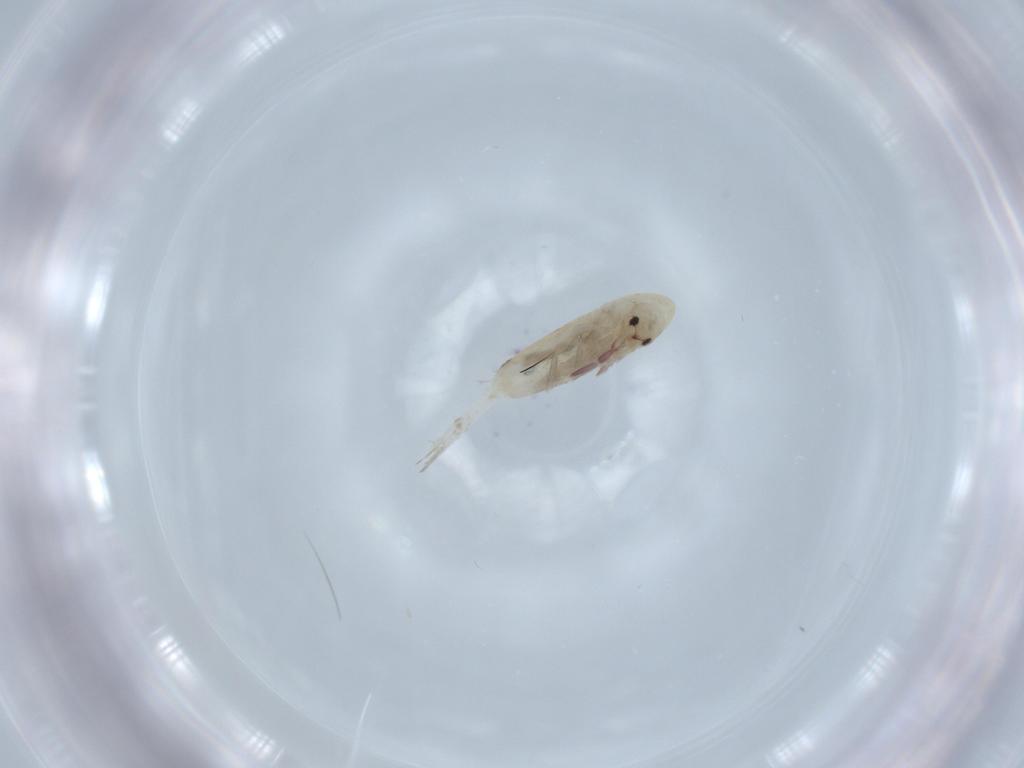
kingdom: Animalia
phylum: Arthropoda
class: Collembola
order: Entomobryomorpha
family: Entomobryidae
